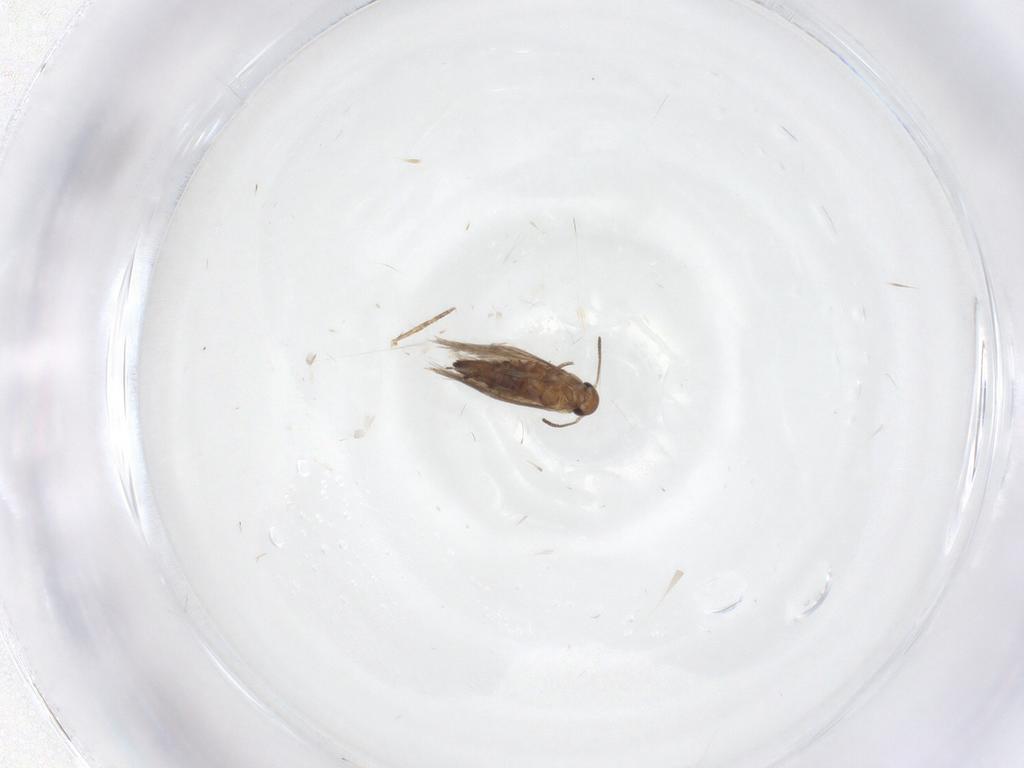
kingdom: Animalia
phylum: Arthropoda
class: Insecta
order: Lepidoptera
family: Heliozelidae
